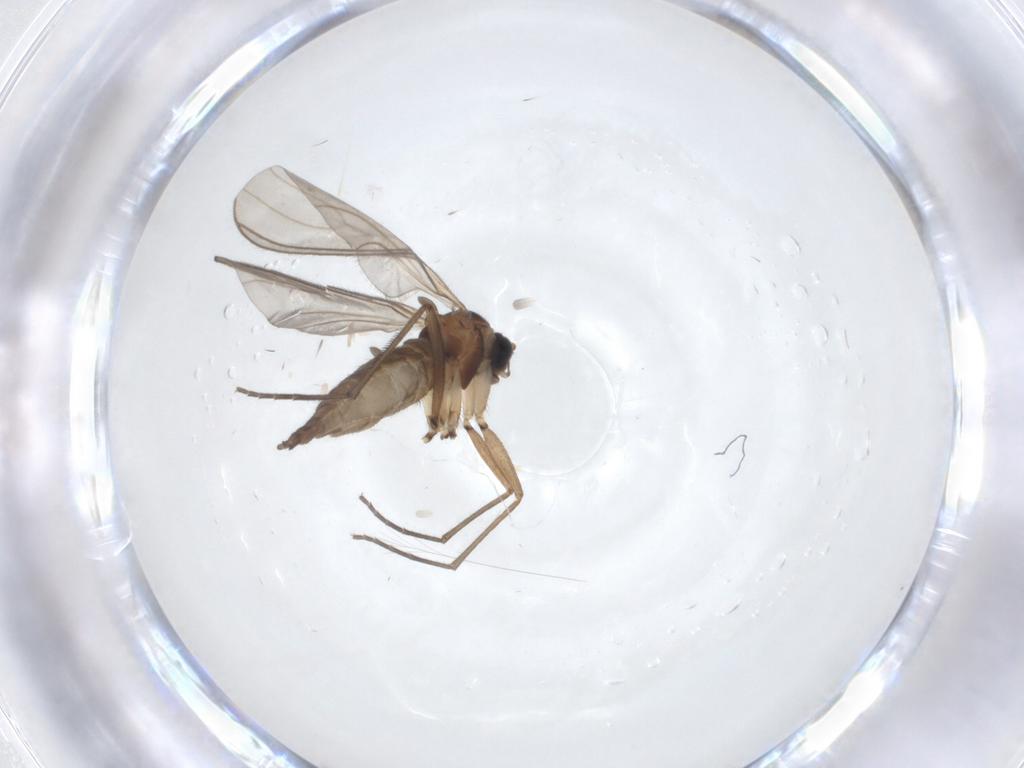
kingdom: Animalia
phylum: Arthropoda
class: Insecta
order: Diptera
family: Sciaridae
